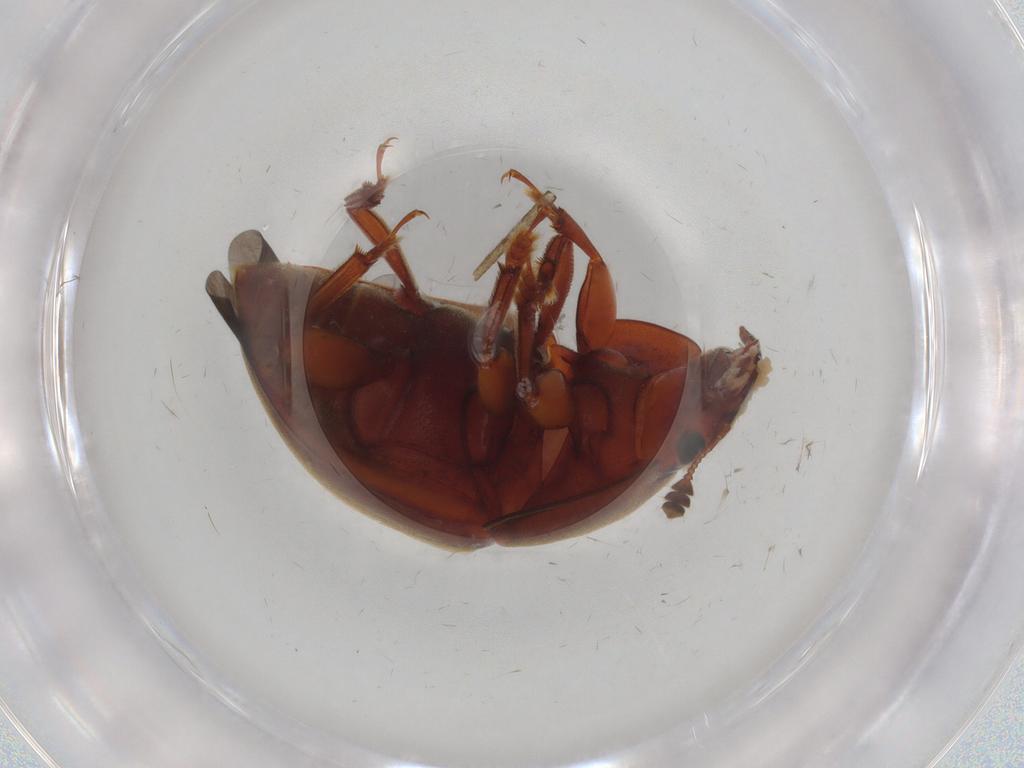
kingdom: Animalia
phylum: Arthropoda
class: Insecta
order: Coleoptera
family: Nitidulidae
